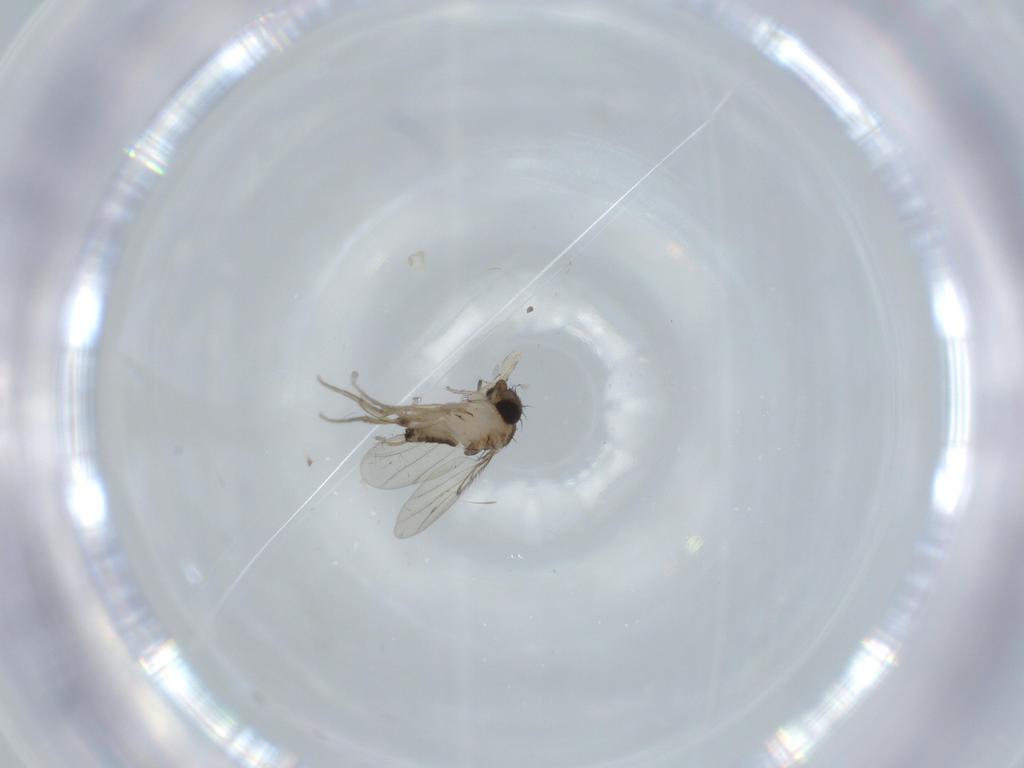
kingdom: Animalia
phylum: Arthropoda
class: Insecta
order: Diptera
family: Phoridae
